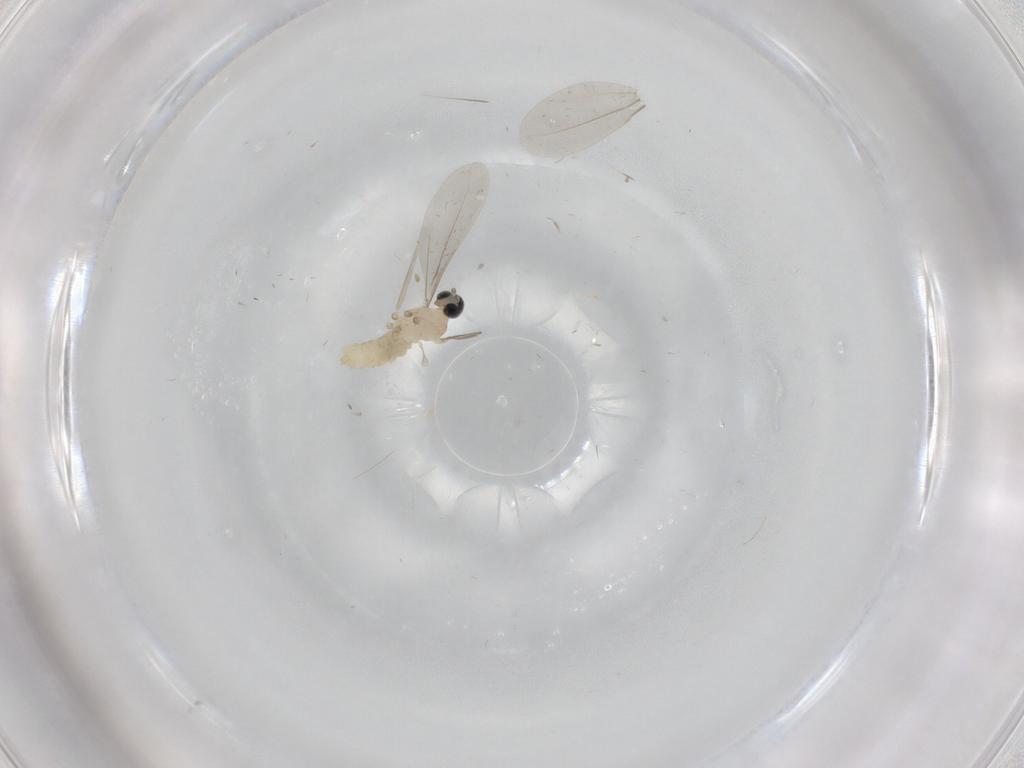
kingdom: Animalia
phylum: Arthropoda
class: Insecta
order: Diptera
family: Cecidomyiidae
